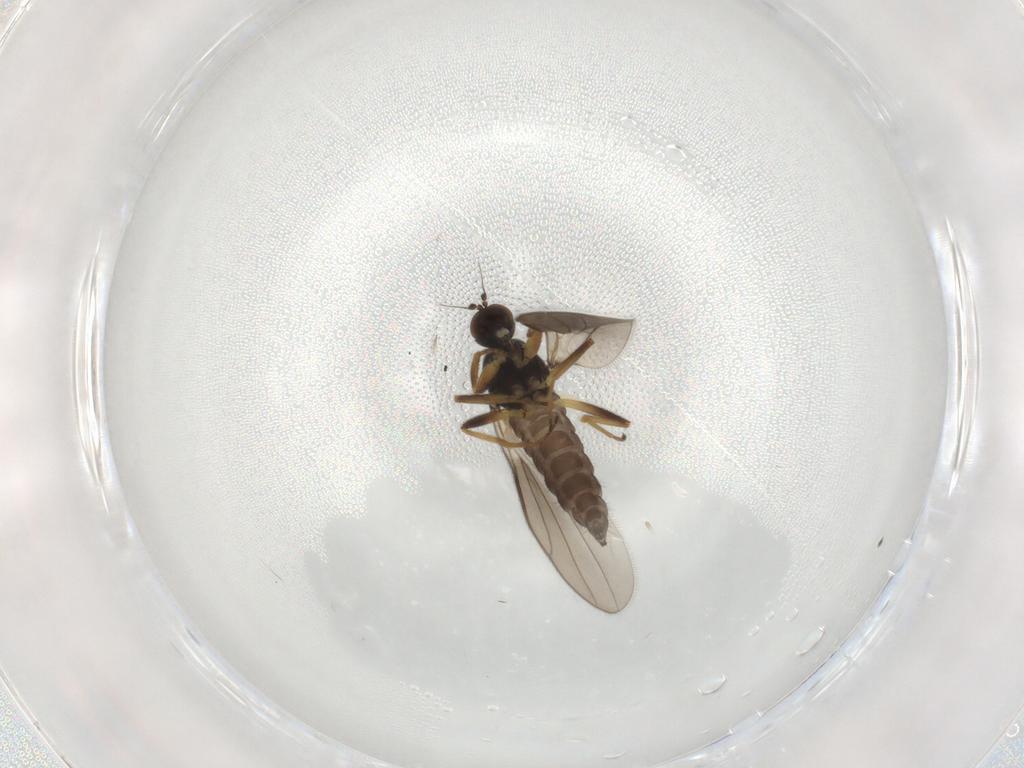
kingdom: Animalia
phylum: Arthropoda
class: Insecta
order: Diptera
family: Hybotidae
